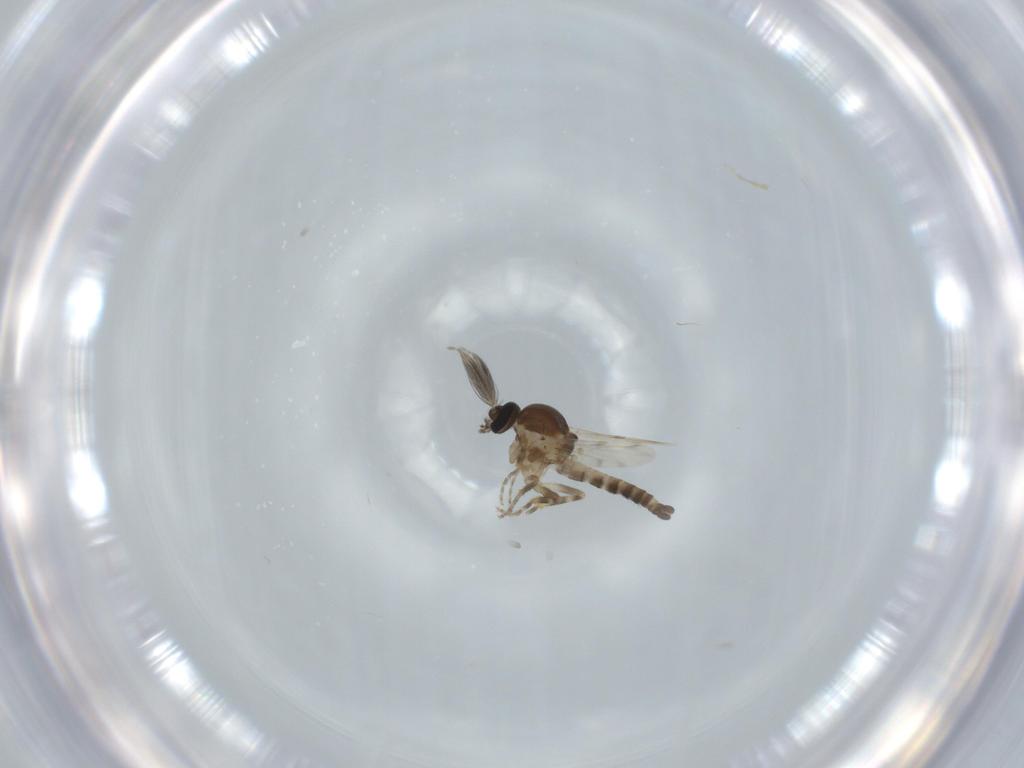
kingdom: Animalia
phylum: Arthropoda
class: Insecta
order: Diptera
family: Ceratopogonidae
